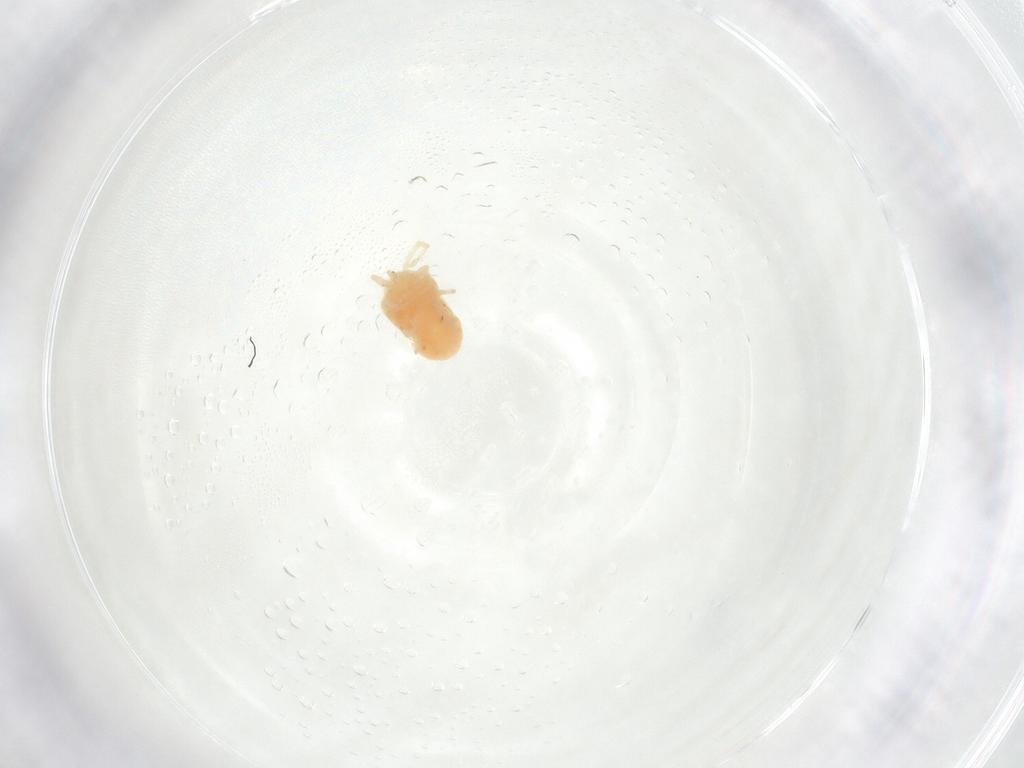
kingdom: Animalia
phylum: Arthropoda
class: Arachnida
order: Trombidiformes
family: Erythraeidae
